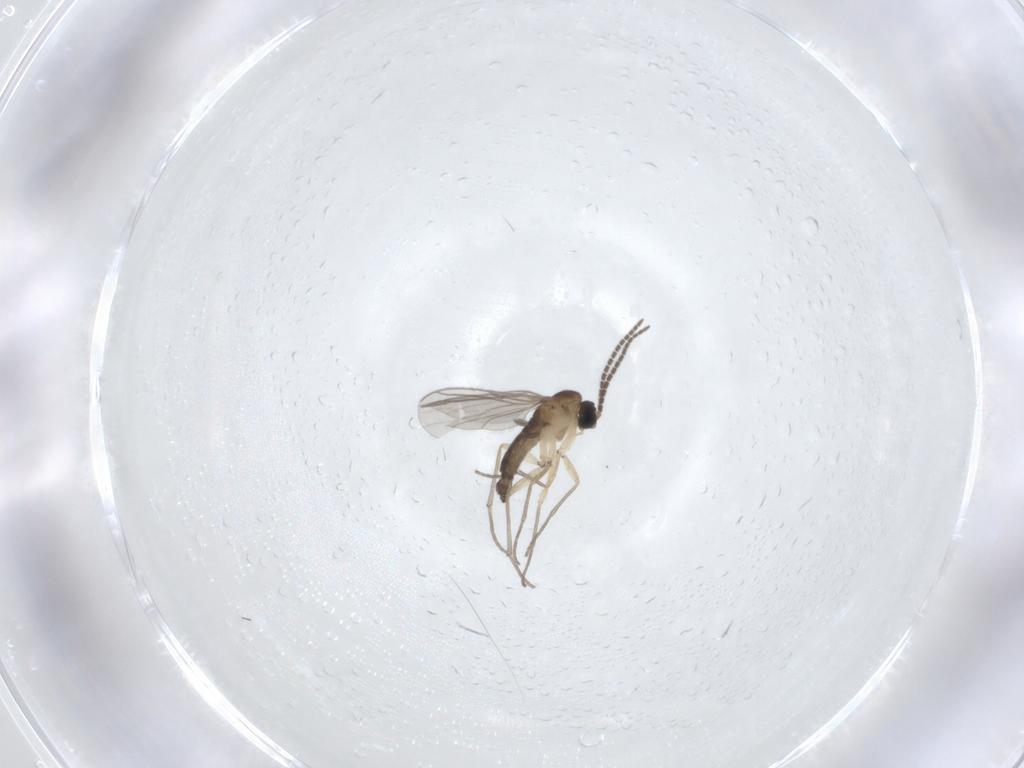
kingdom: Animalia
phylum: Arthropoda
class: Insecta
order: Diptera
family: Sciaridae
